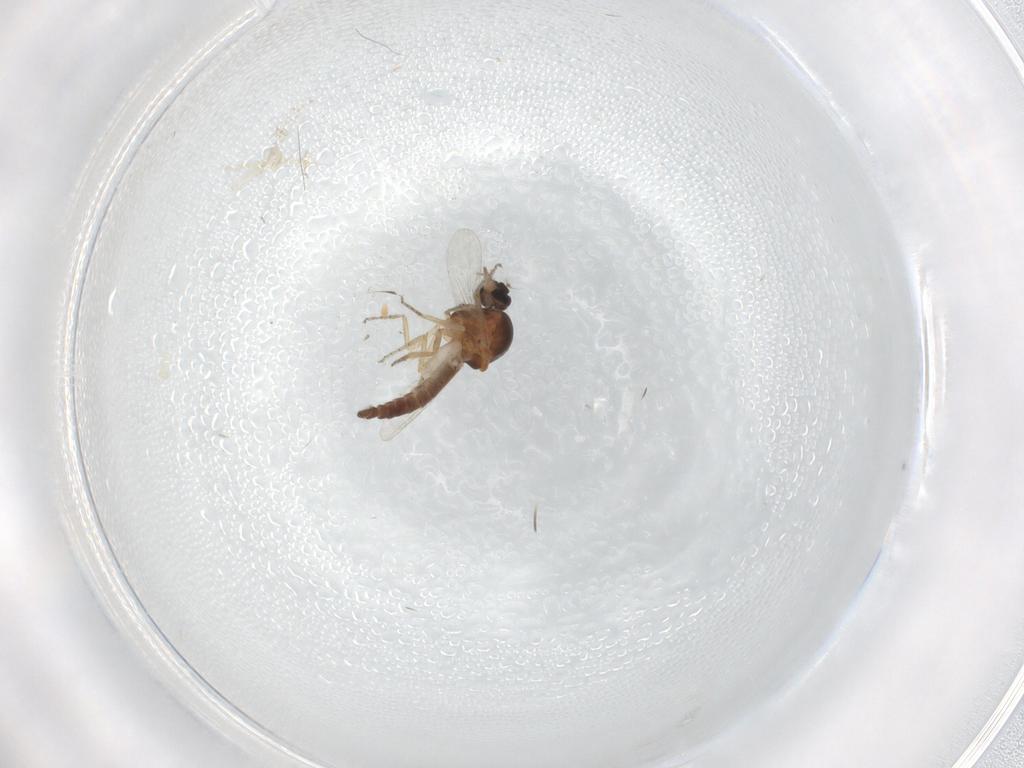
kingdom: Animalia
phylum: Arthropoda
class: Insecta
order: Diptera
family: Ceratopogonidae
